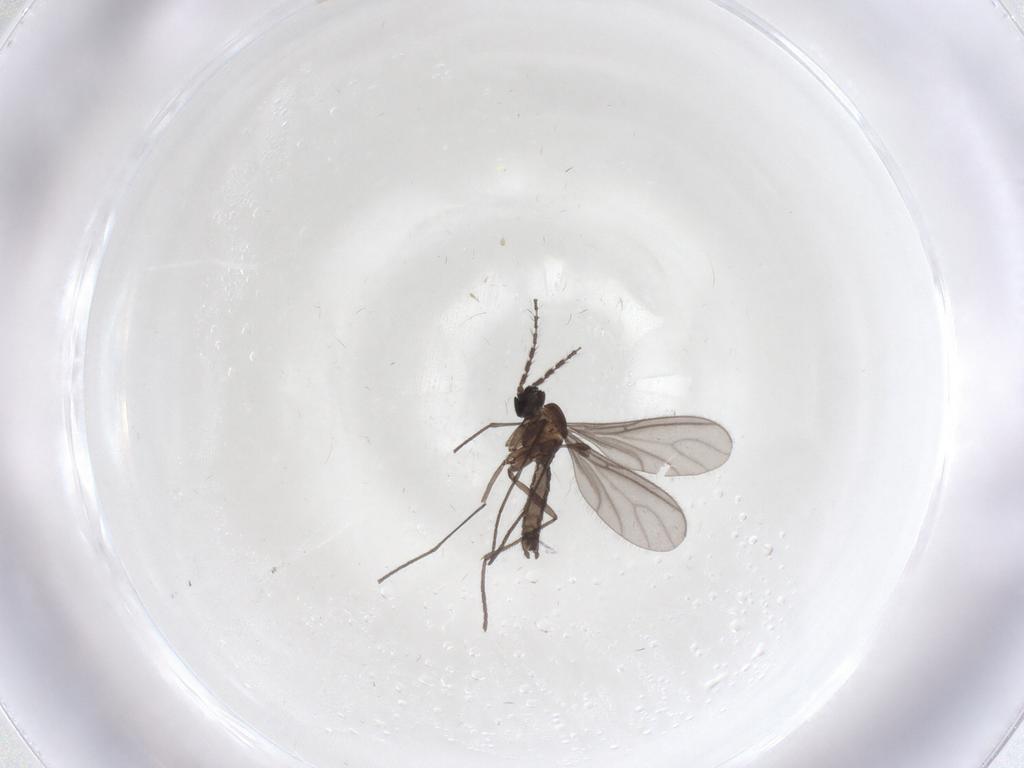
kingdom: Animalia
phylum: Arthropoda
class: Insecta
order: Diptera
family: Sciaridae
